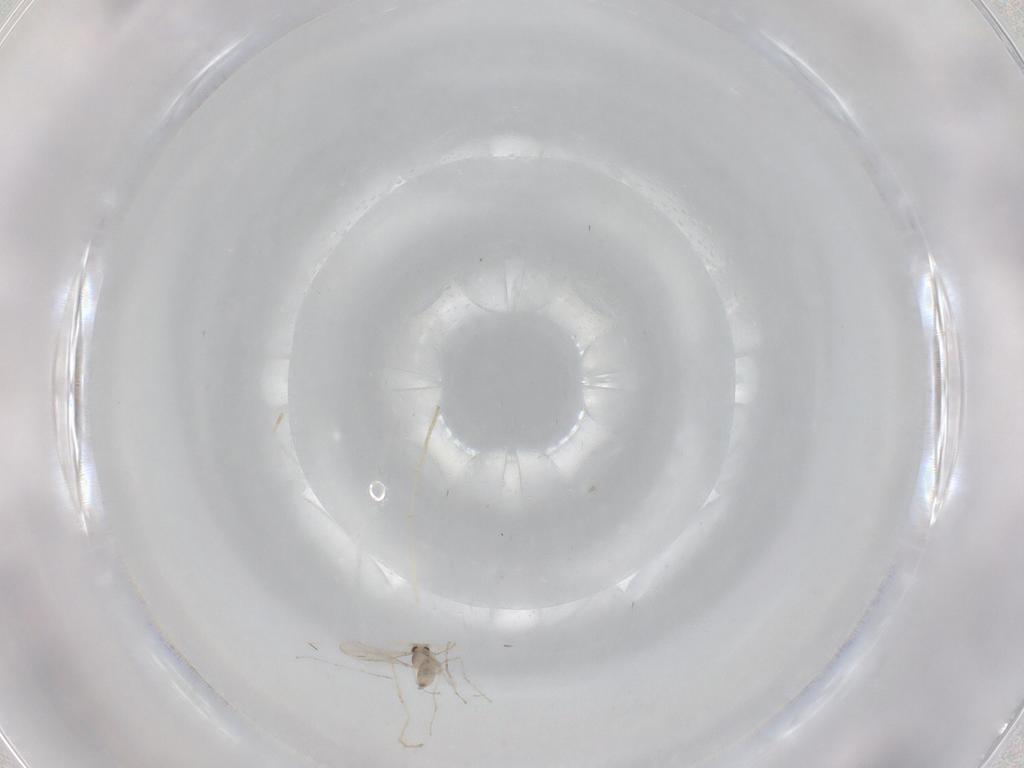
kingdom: Animalia
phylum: Arthropoda
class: Insecta
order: Diptera
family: Chironomidae
